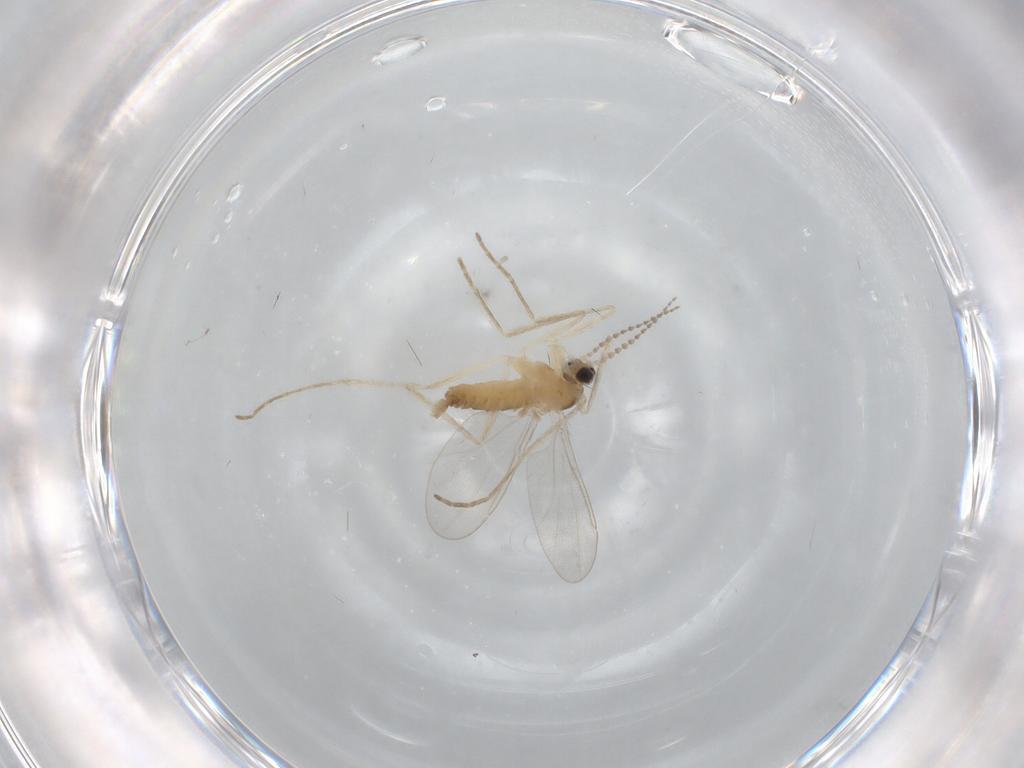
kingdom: Animalia
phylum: Arthropoda
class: Insecta
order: Diptera
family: Cecidomyiidae
